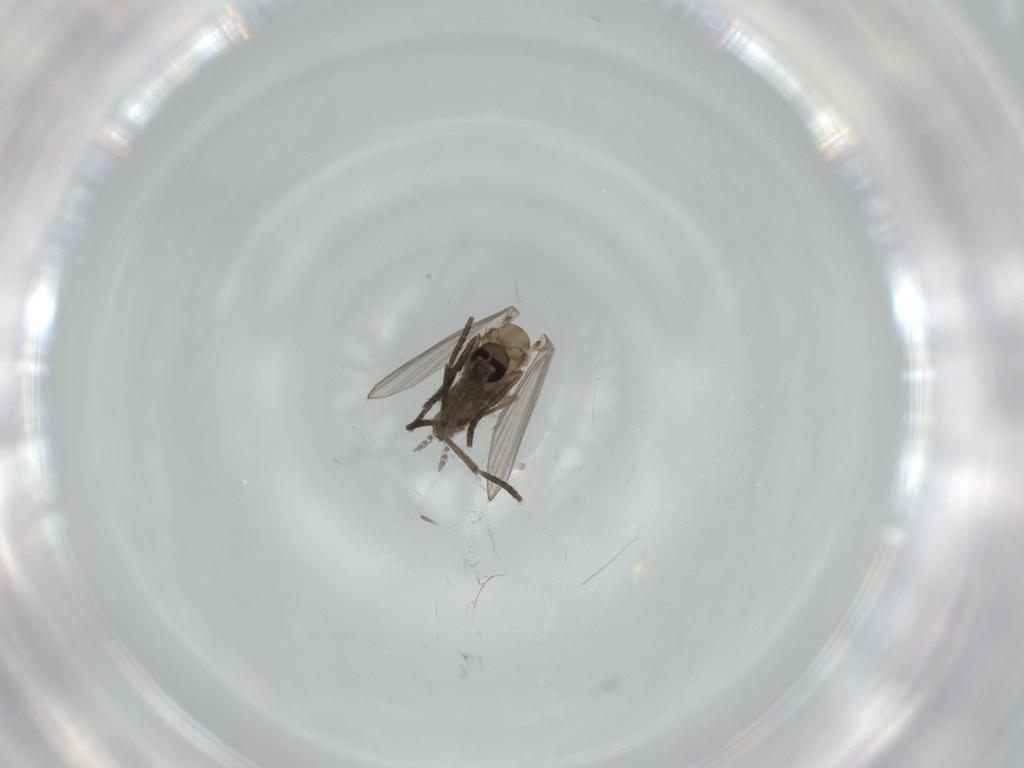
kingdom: Animalia
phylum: Arthropoda
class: Insecta
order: Diptera
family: Psychodidae
